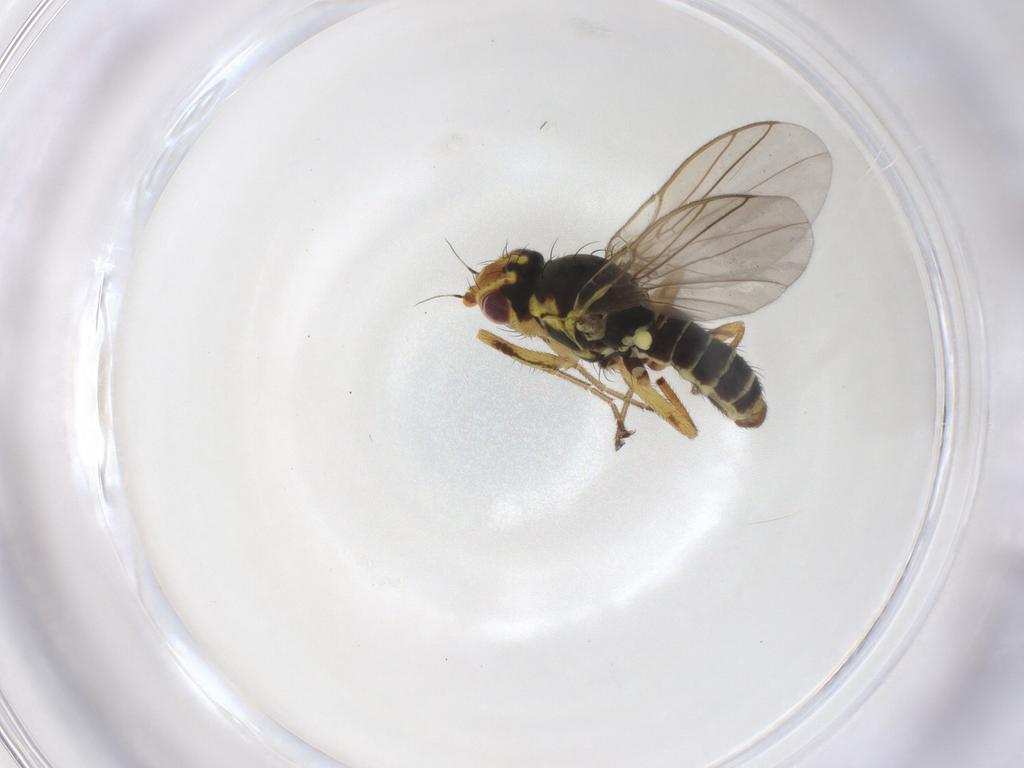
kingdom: Animalia
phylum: Arthropoda
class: Insecta
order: Diptera
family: Agromyzidae
